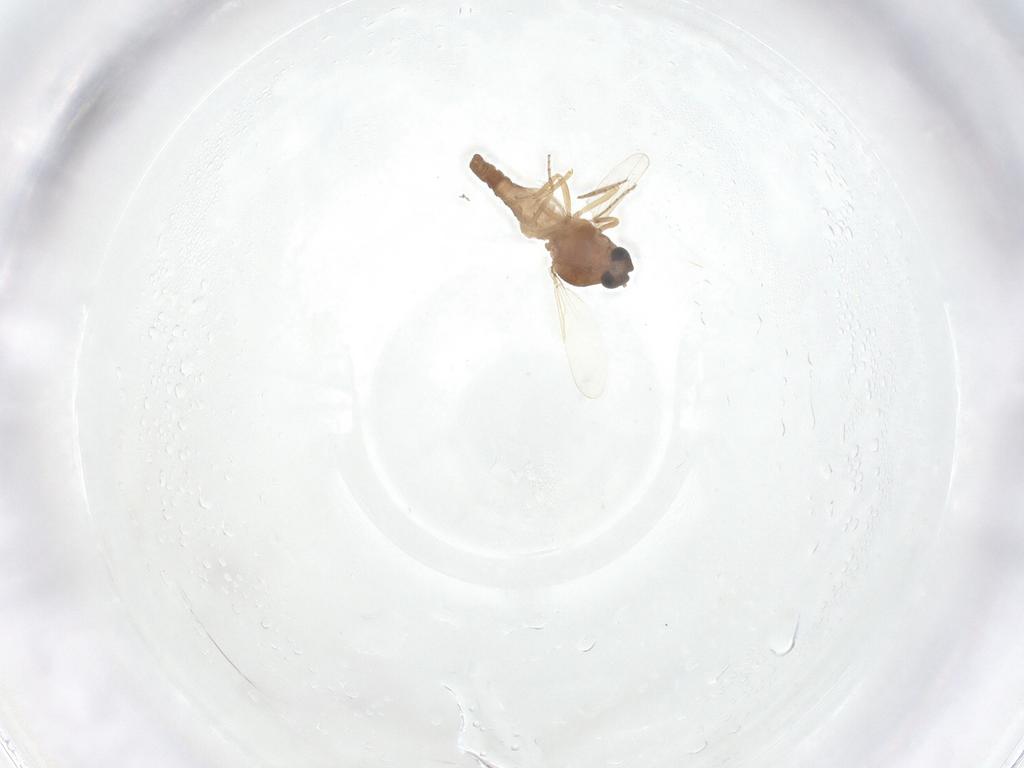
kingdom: Animalia
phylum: Arthropoda
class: Insecta
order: Diptera
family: Ceratopogonidae
